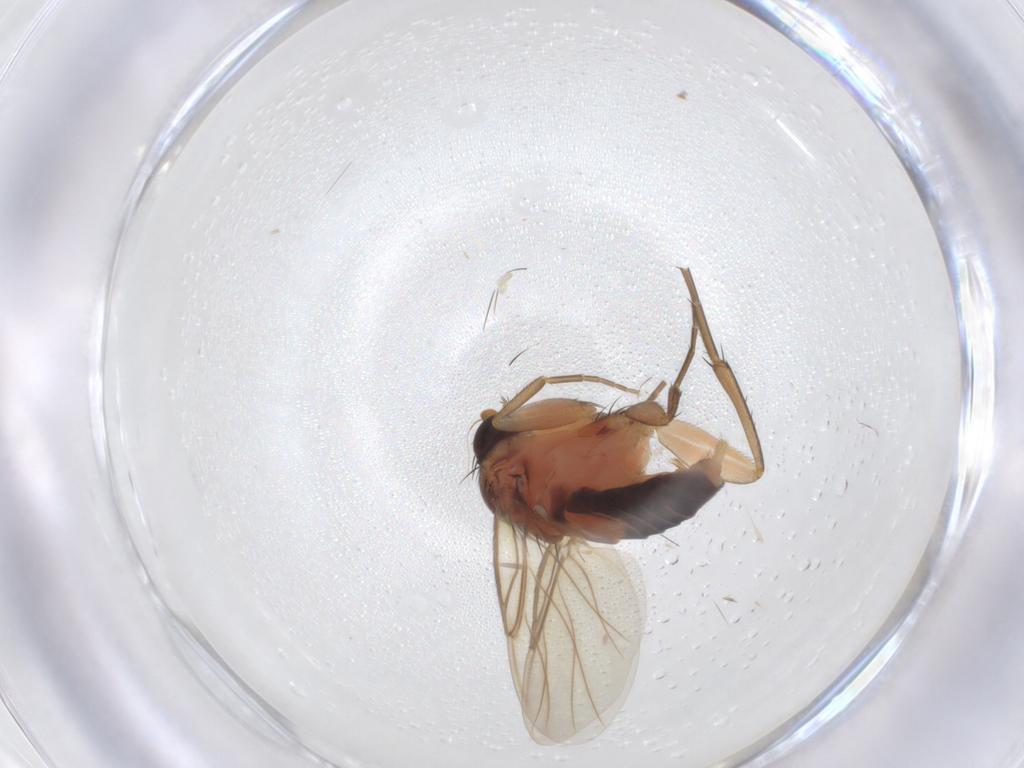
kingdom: Animalia
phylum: Arthropoda
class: Insecta
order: Diptera
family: Phoridae
